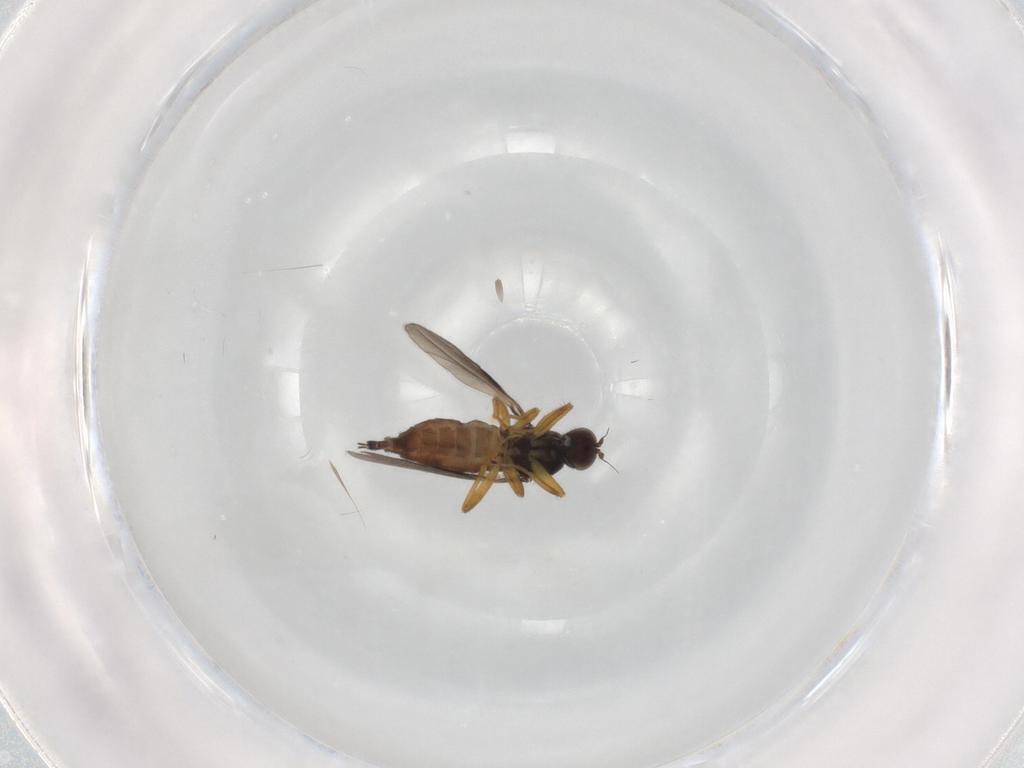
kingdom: Animalia
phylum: Arthropoda
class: Insecta
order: Diptera
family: Hybotidae
